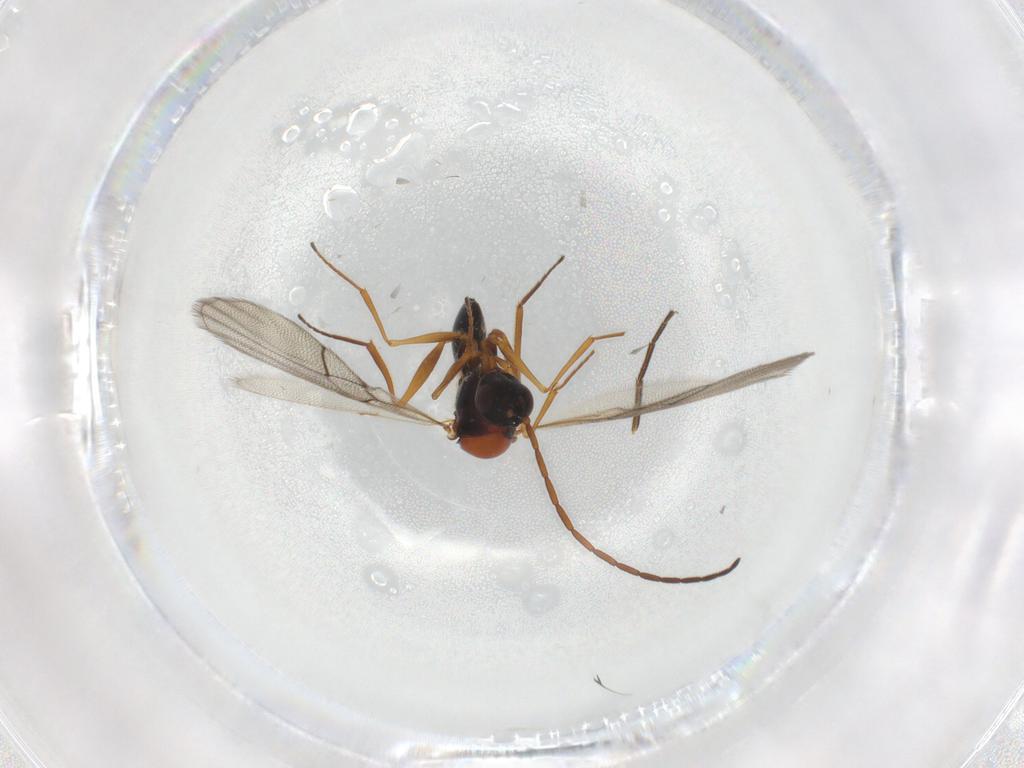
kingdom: Animalia
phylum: Arthropoda
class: Insecta
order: Hymenoptera
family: Figitidae
